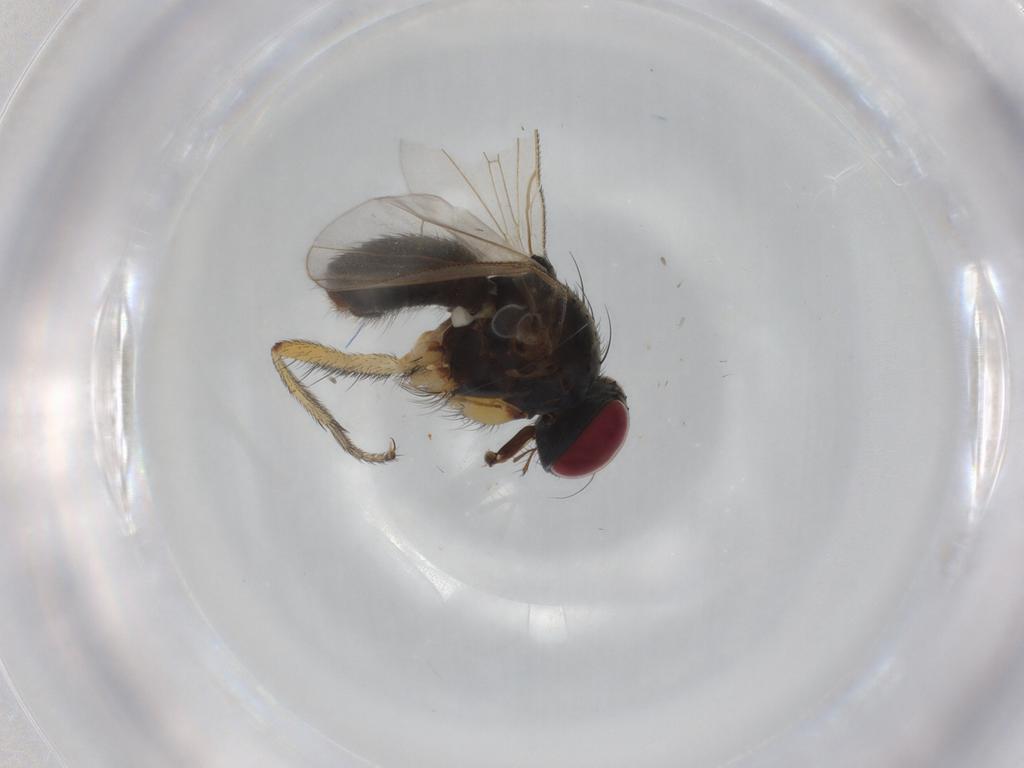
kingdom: Animalia
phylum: Arthropoda
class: Insecta
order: Diptera
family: Muscidae
